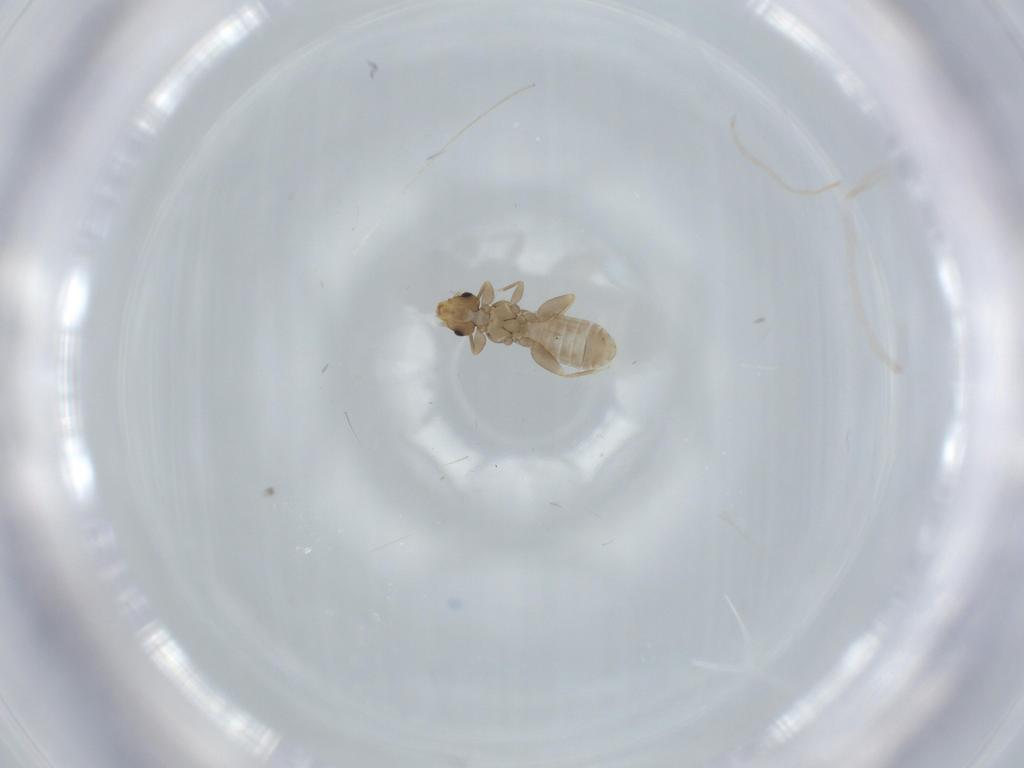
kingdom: Animalia
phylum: Arthropoda
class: Insecta
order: Psocodea
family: Liposcelididae
